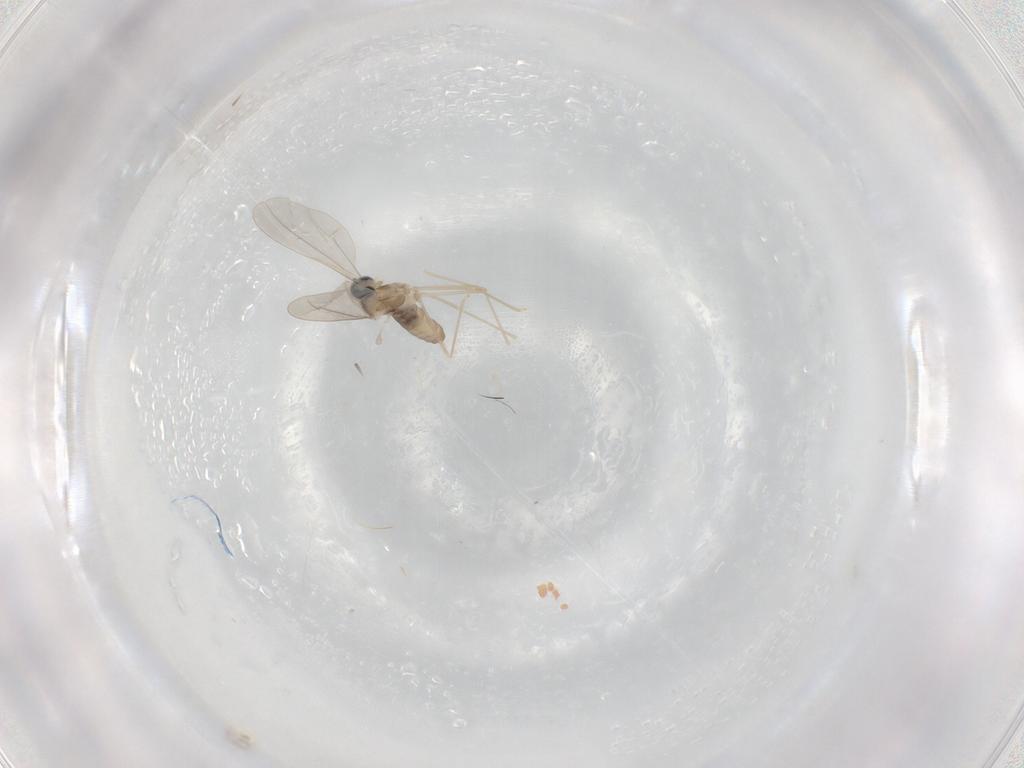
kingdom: Animalia
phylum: Arthropoda
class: Insecta
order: Diptera
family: Cecidomyiidae
